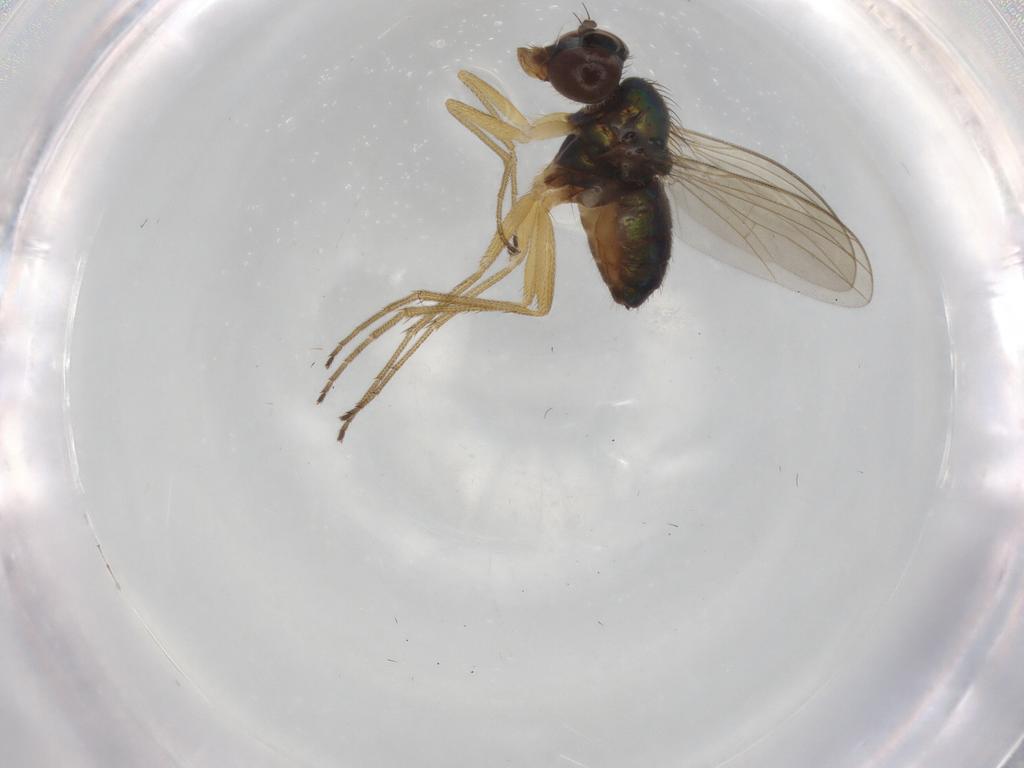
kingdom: Animalia
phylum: Arthropoda
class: Insecta
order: Diptera
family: Dolichopodidae
